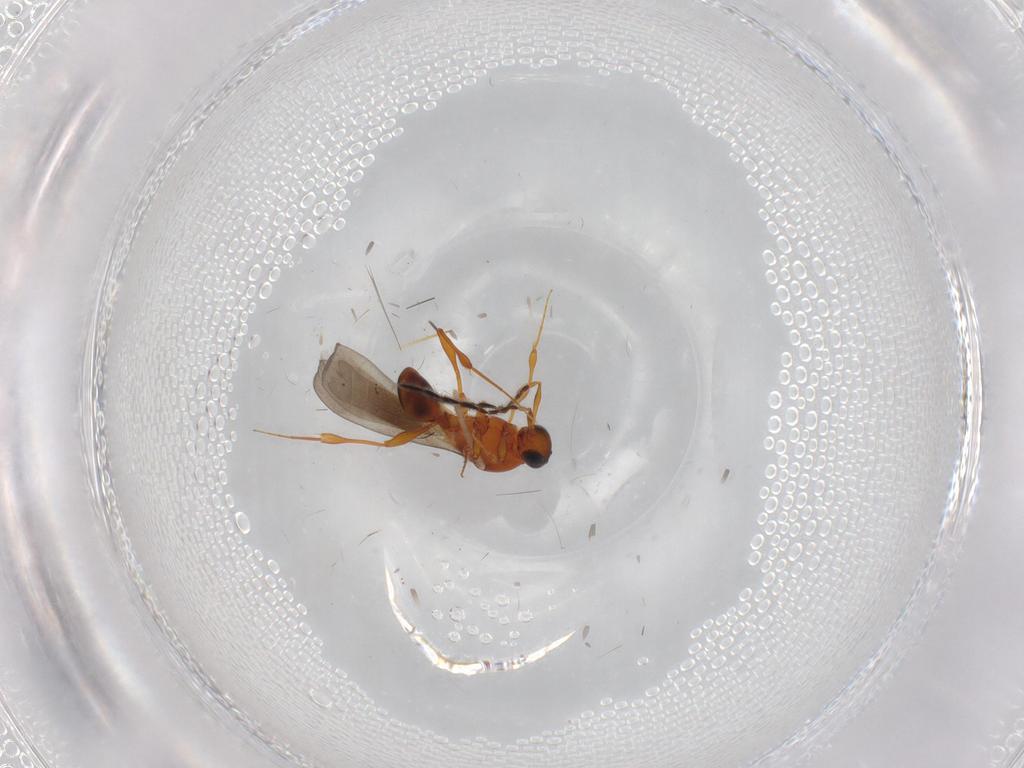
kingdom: Animalia
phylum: Arthropoda
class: Insecta
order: Hymenoptera
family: Platygastridae
